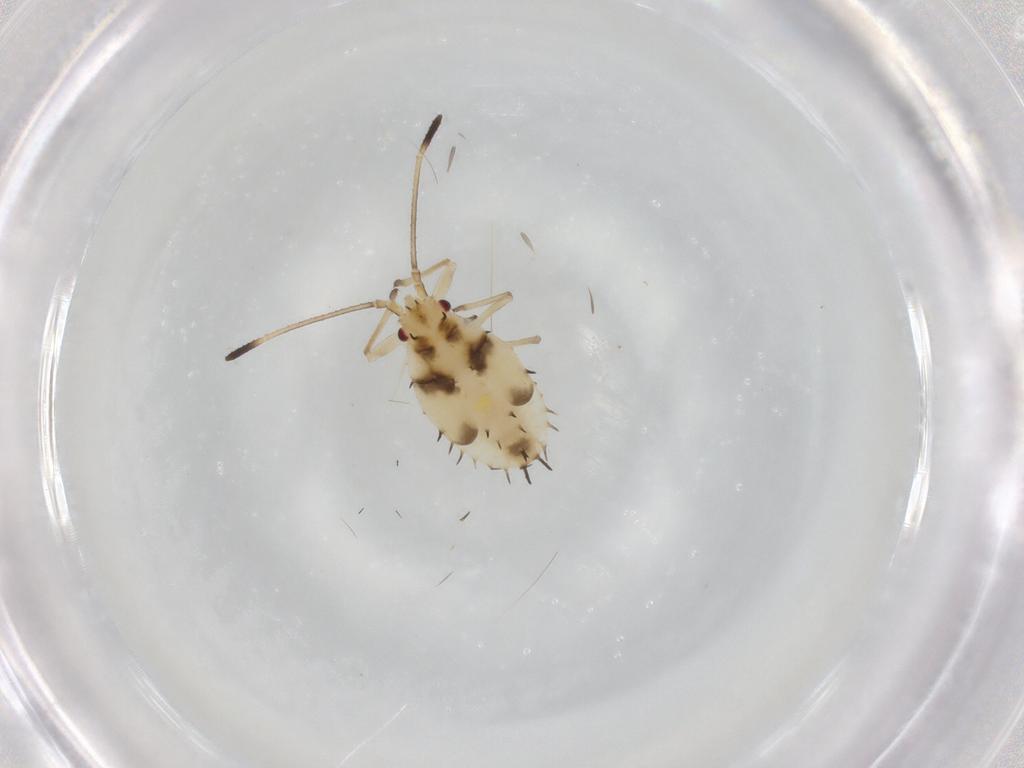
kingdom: Animalia
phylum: Arthropoda
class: Insecta
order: Hemiptera
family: Tingidae
